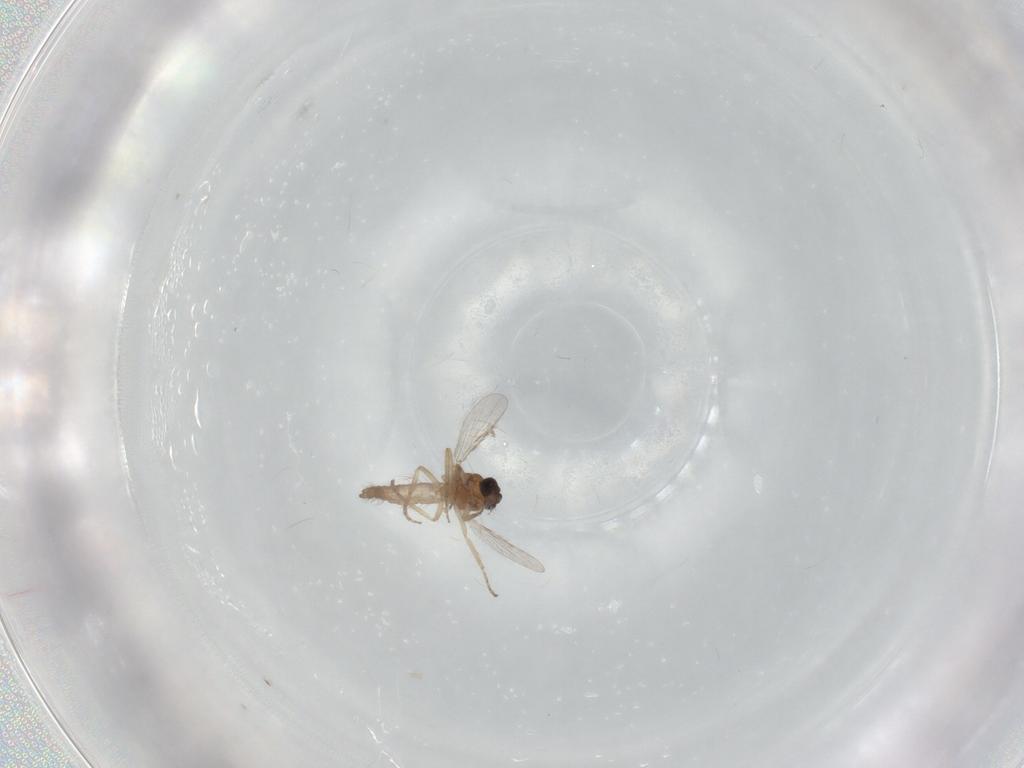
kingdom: Animalia
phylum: Arthropoda
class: Insecta
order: Diptera
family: Ceratopogonidae
